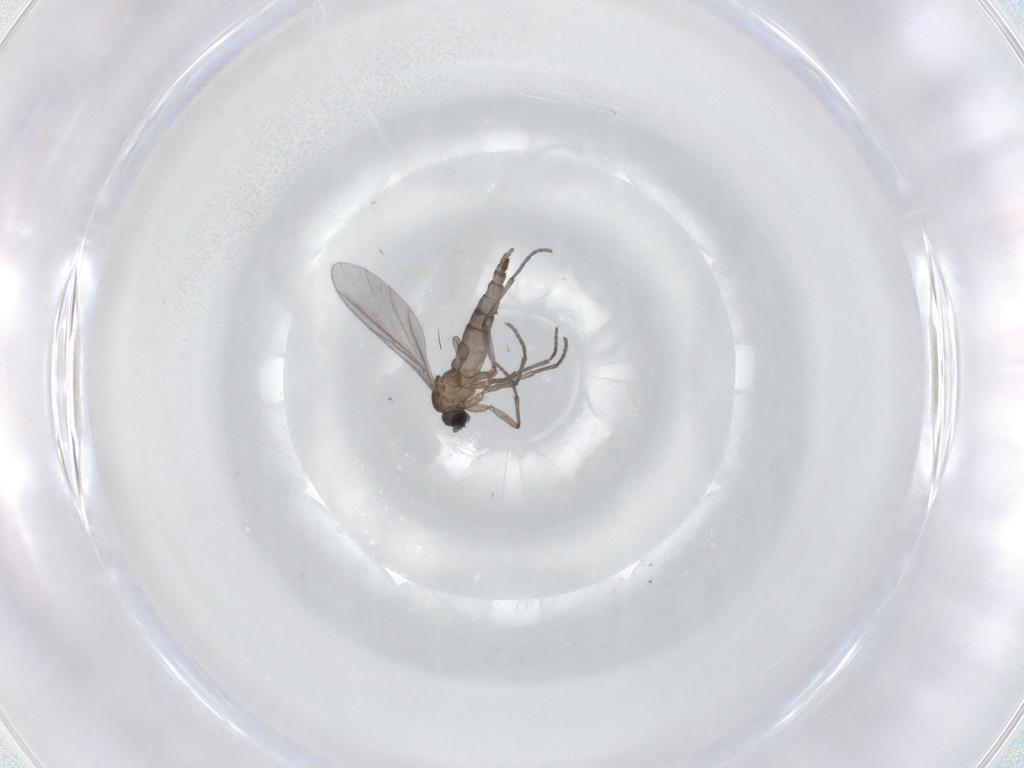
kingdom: Animalia
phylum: Arthropoda
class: Insecta
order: Diptera
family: Sciaridae
